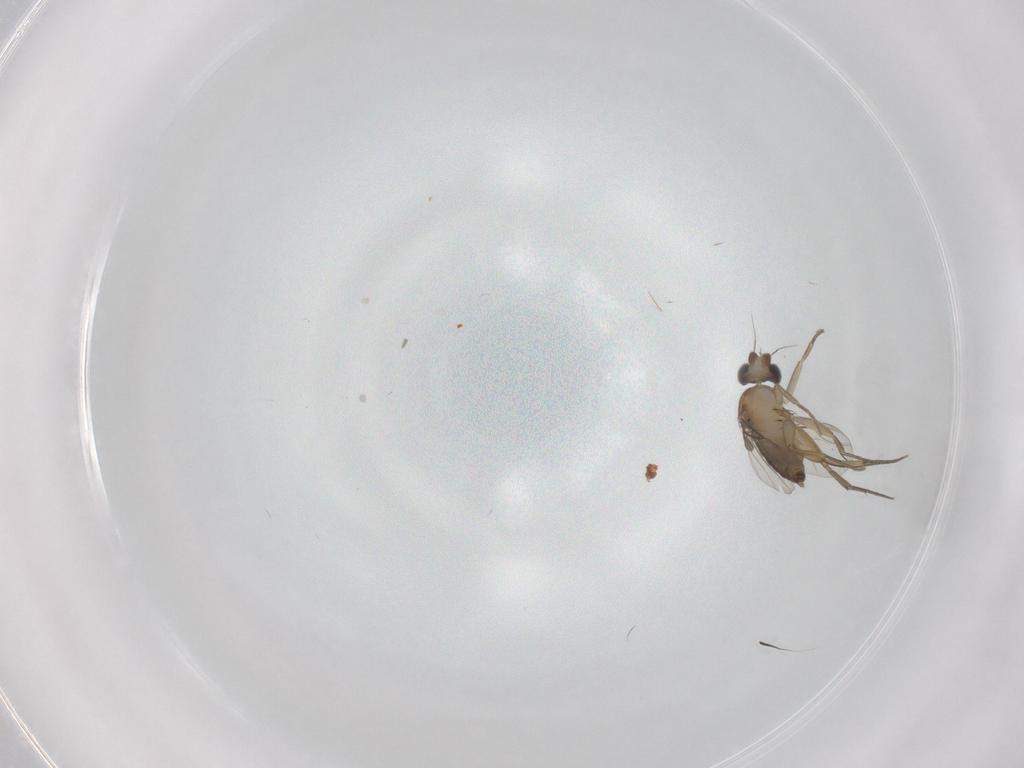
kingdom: Animalia
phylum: Arthropoda
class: Insecta
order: Diptera
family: Phoridae
